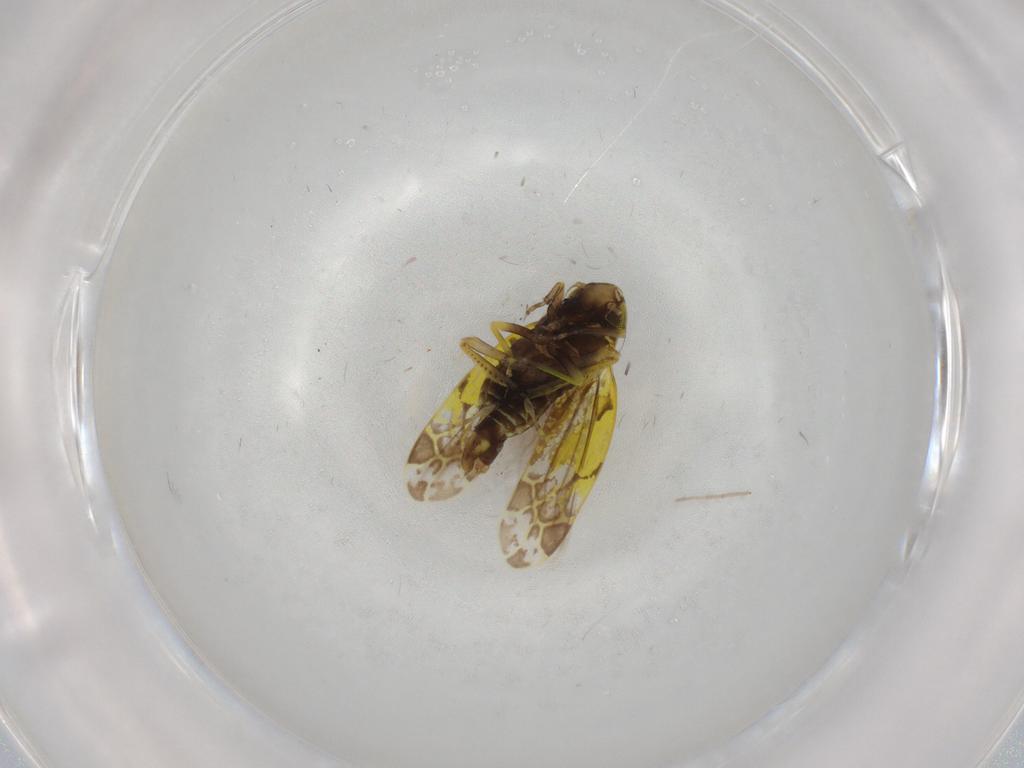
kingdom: Animalia
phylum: Arthropoda
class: Insecta
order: Hemiptera
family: Cicadellidae
